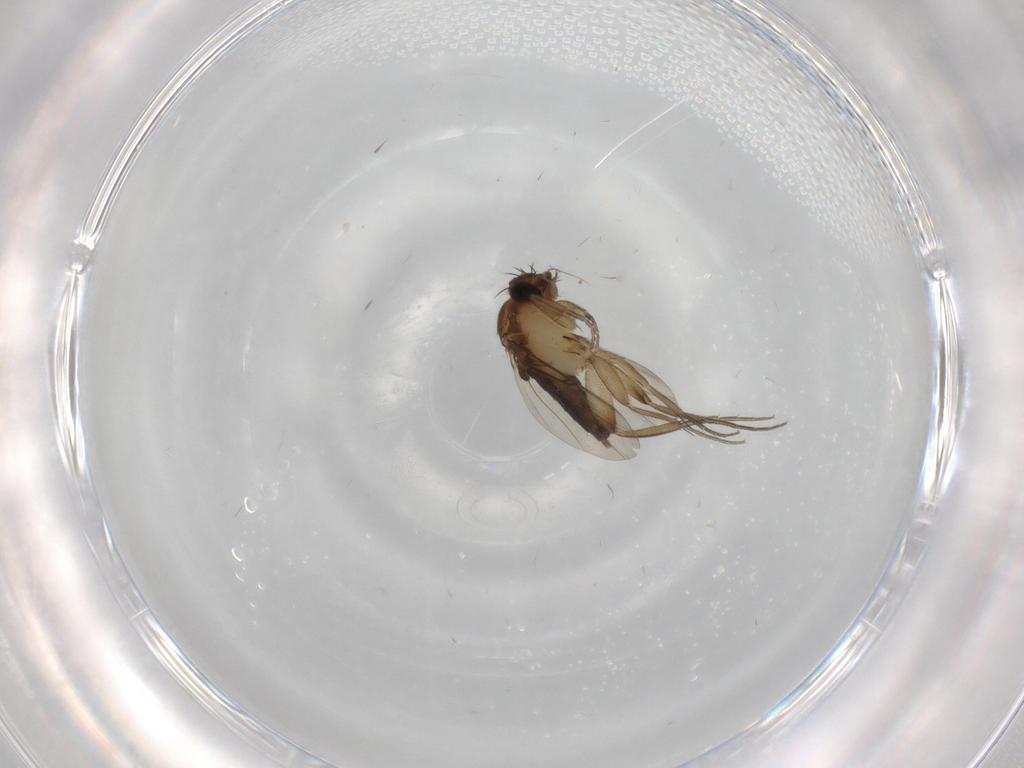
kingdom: Animalia
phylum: Arthropoda
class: Insecta
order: Diptera
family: Phoridae
